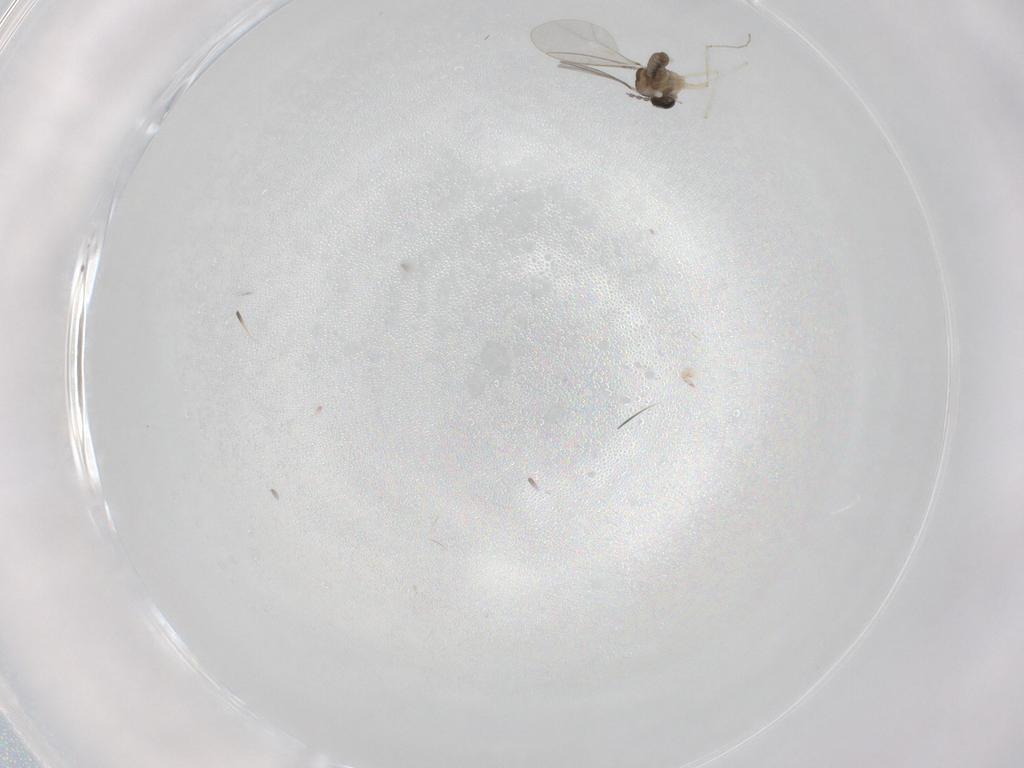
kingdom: Animalia
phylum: Arthropoda
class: Insecta
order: Diptera
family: Cecidomyiidae
